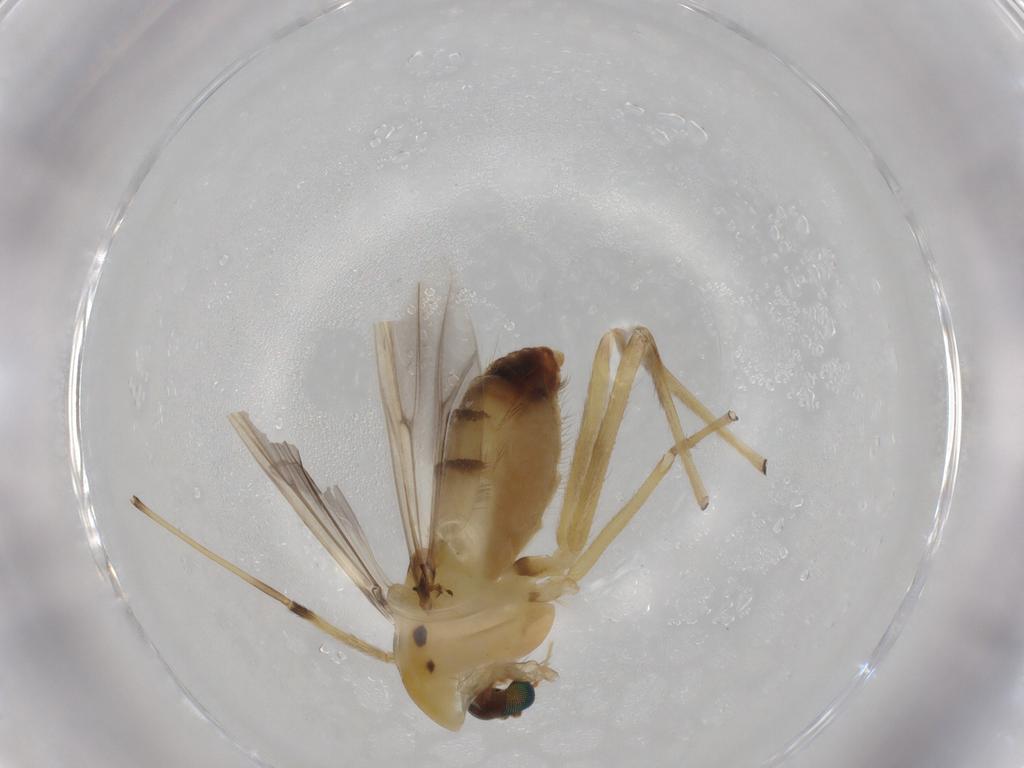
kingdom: Animalia
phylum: Arthropoda
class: Insecta
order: Diptera
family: Chironomidae
